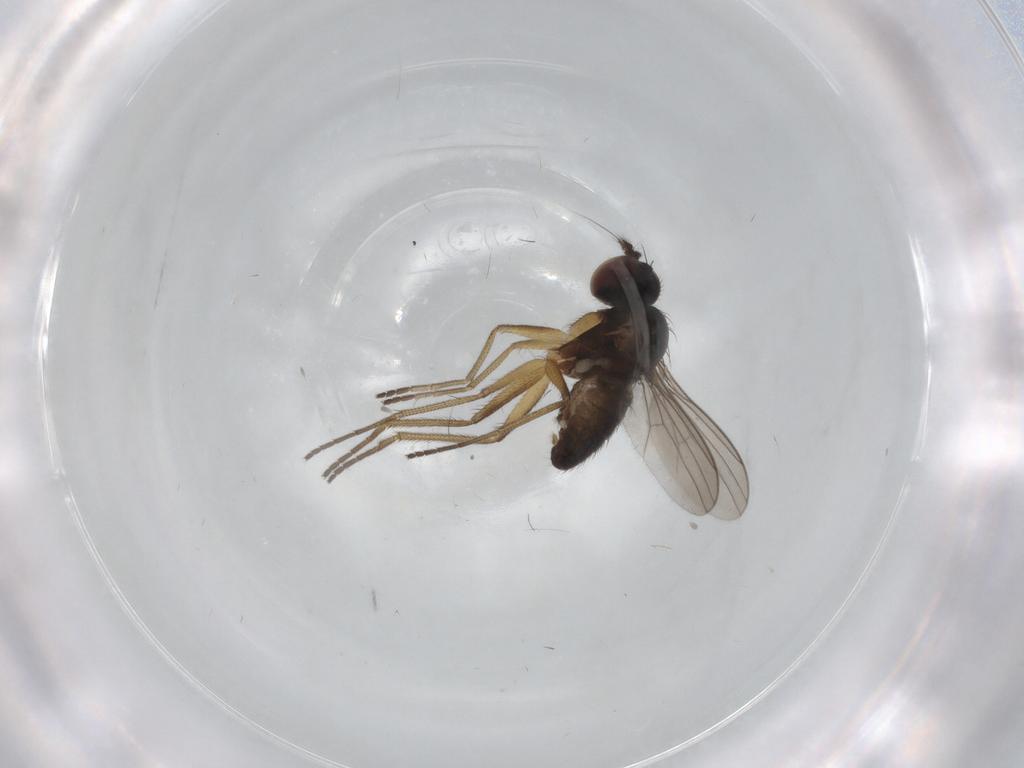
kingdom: Animalia
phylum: Arthropoda
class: Insecta
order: Diptera
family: Dolichopodidae
